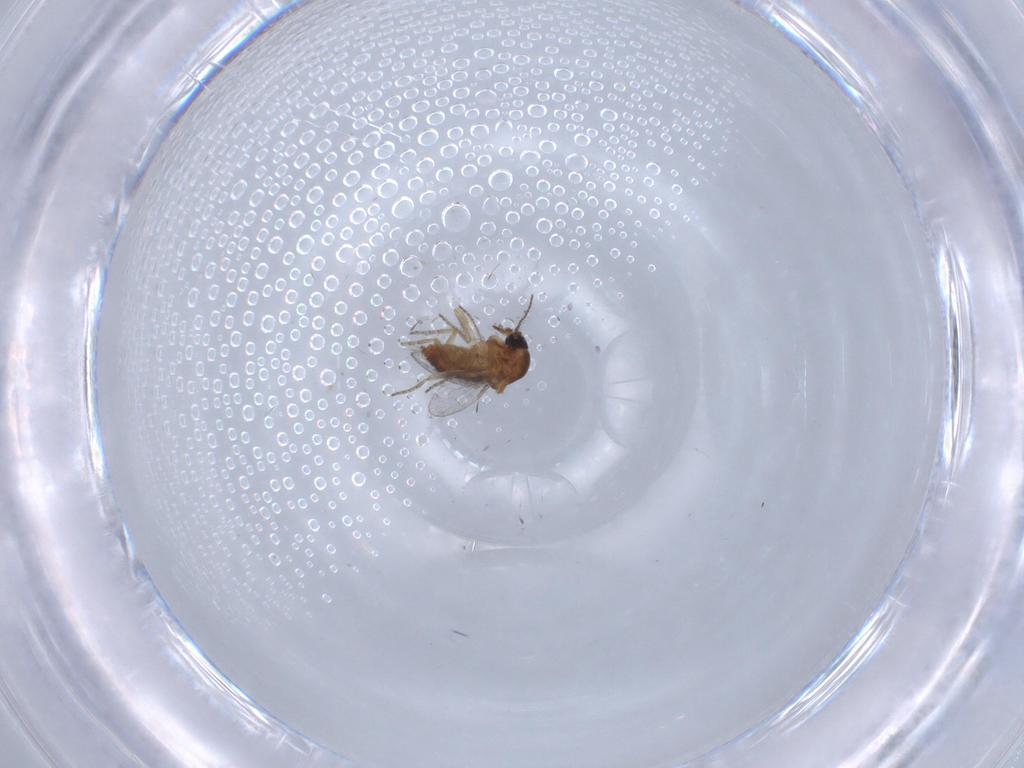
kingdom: Animalia
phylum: Arthropoda
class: Insecta
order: Diptera
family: Ceratopogonidae
